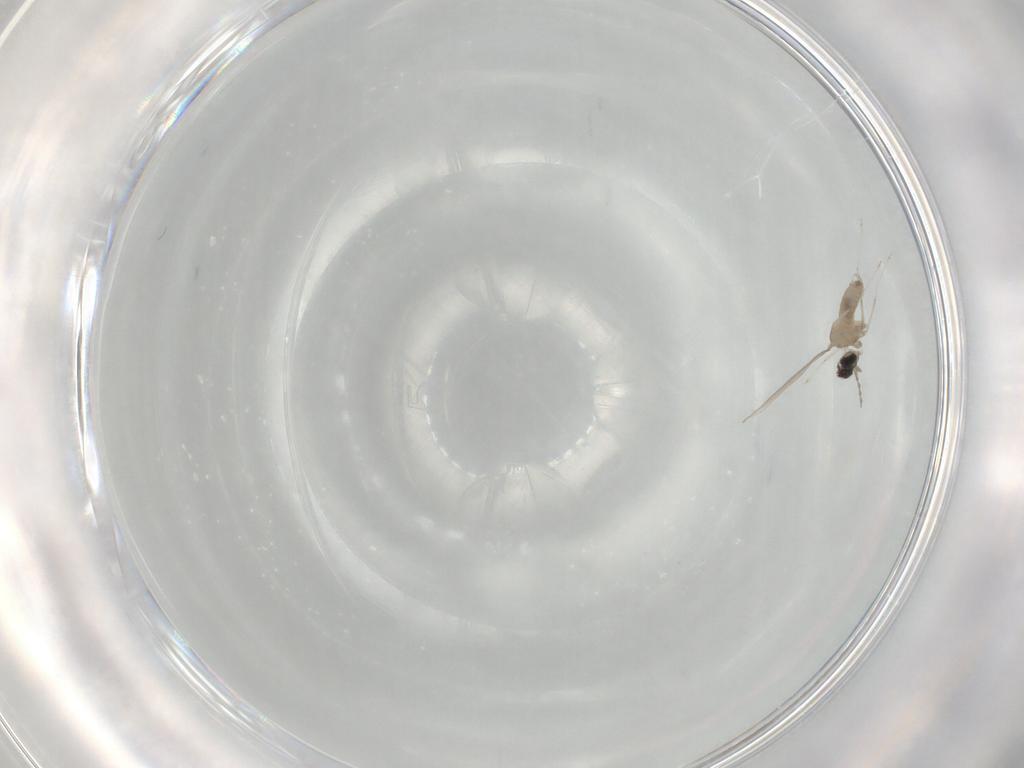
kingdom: Animalia
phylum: Arthropoda
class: Insecta
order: Diptera
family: Cecidomyiidae
